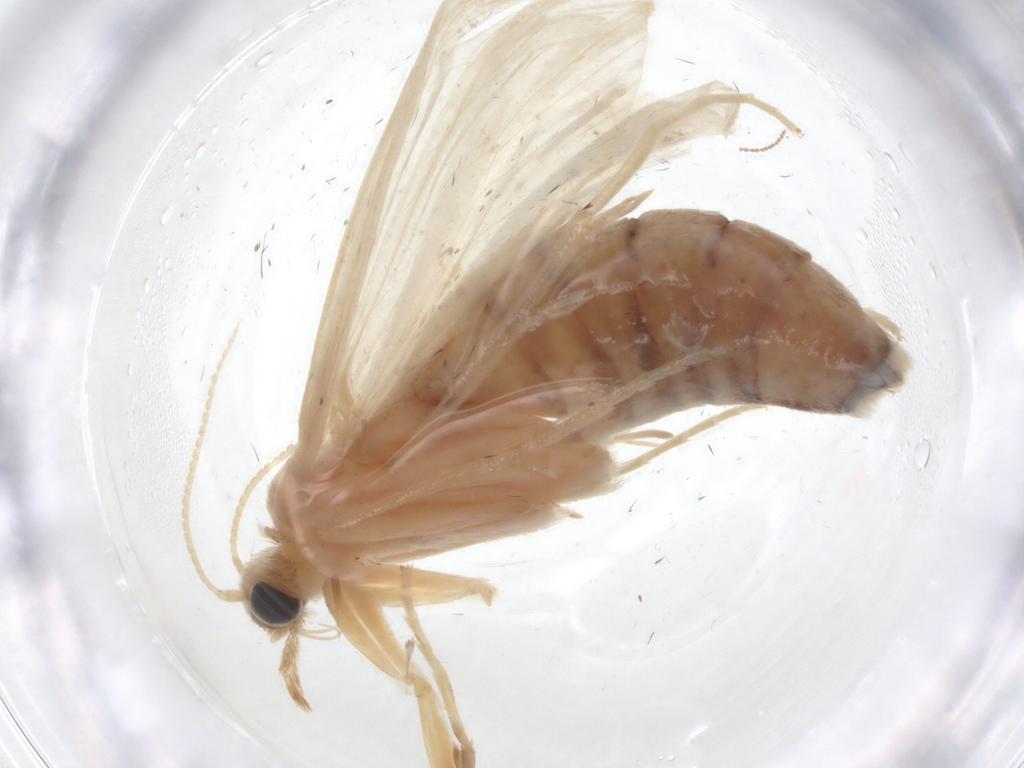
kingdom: Animalia
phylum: Arthropoda
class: Insecta
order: Lepidoptera
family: Crambidae
